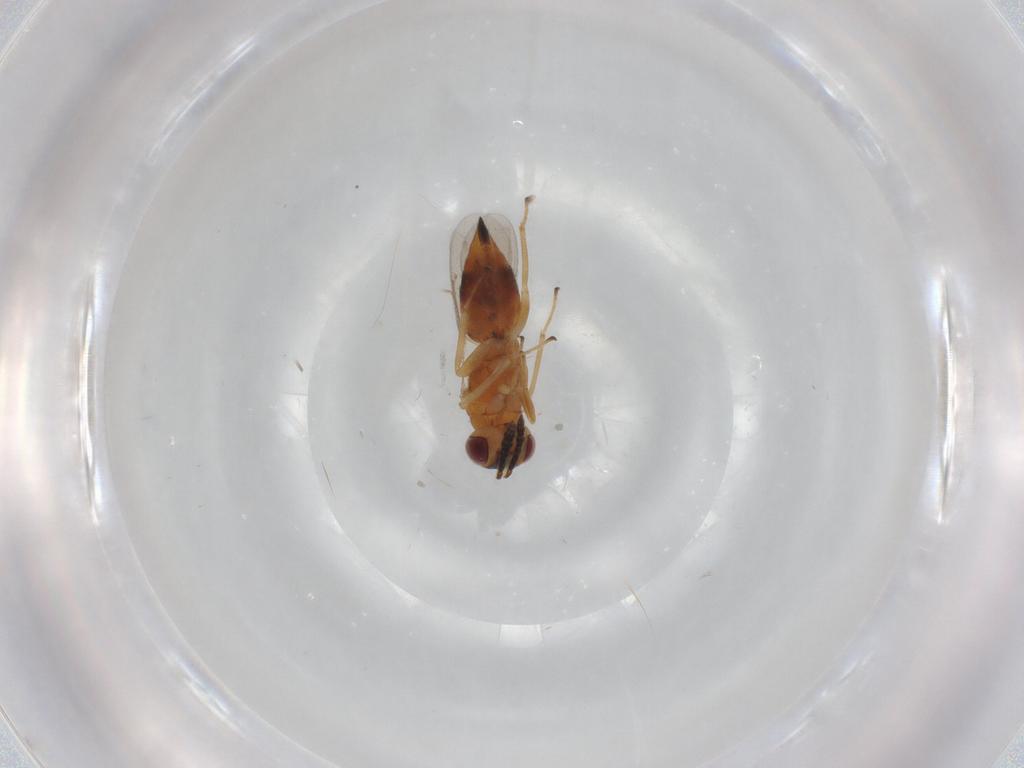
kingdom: Animalia
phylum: Arthropoda
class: Insecta
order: Hymenoptera
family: Eulophidae
